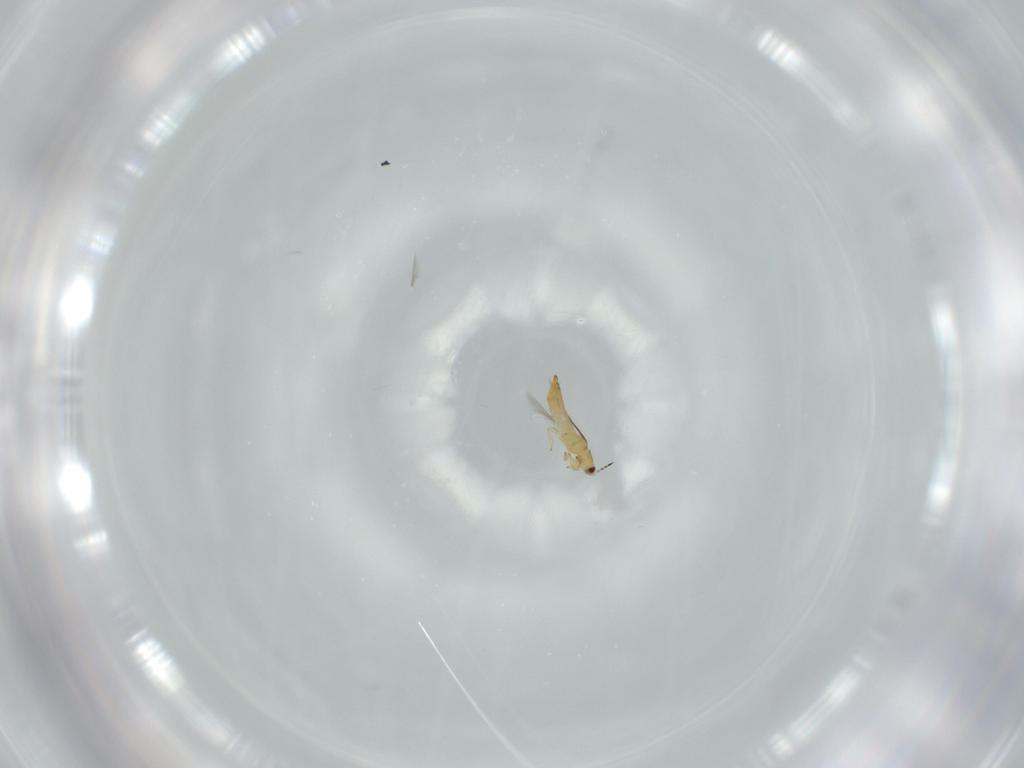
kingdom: Animalia
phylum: Arthropoda
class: Insecta
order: Thysanoptera
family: Thripidae
